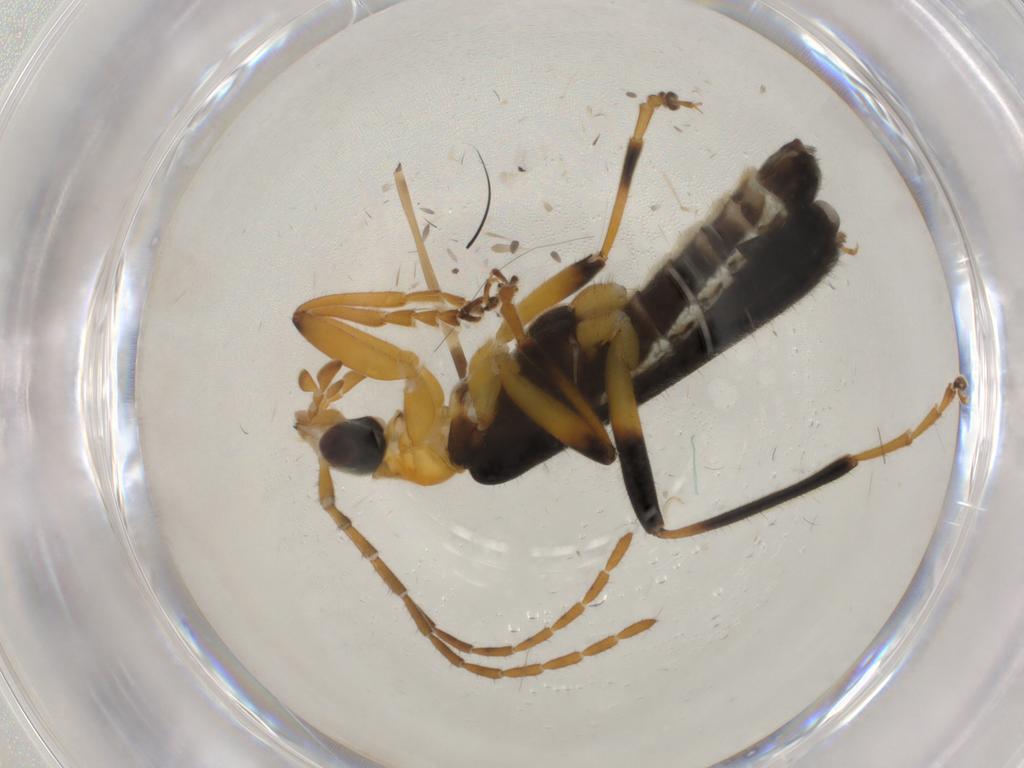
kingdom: Animalia
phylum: Arthropoda
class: Insecta
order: Coleoptera
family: Cantharidae
